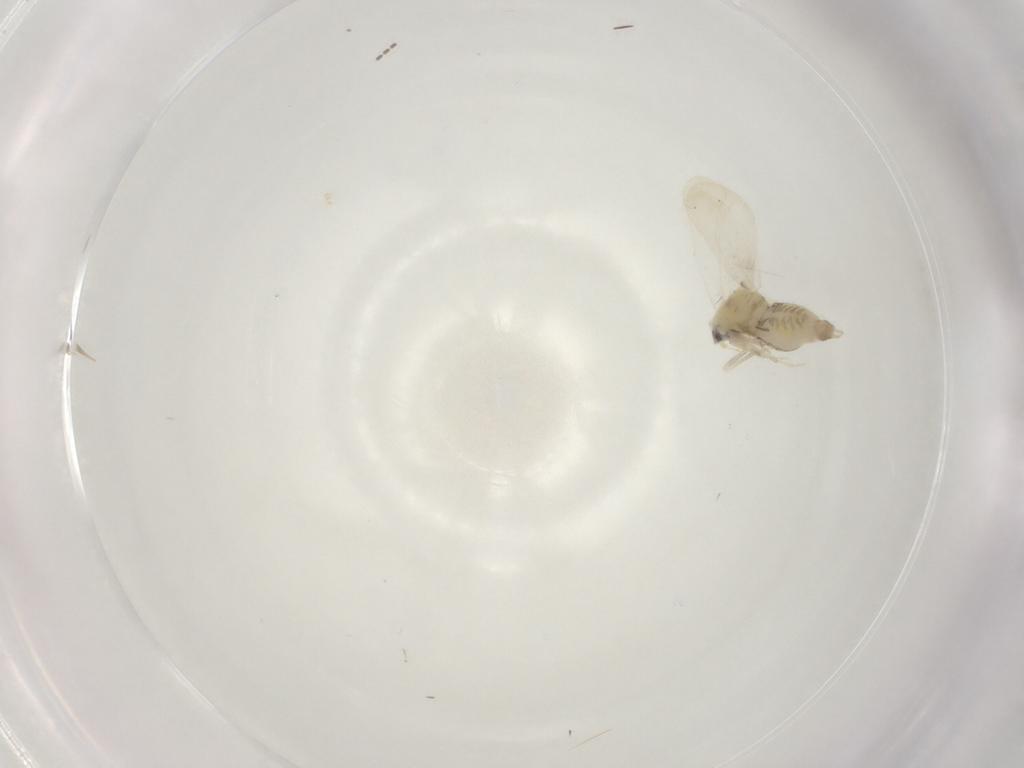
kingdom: Animalia
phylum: Arthropoda
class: Insecta
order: Hemiptera
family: Aleyrodidae
